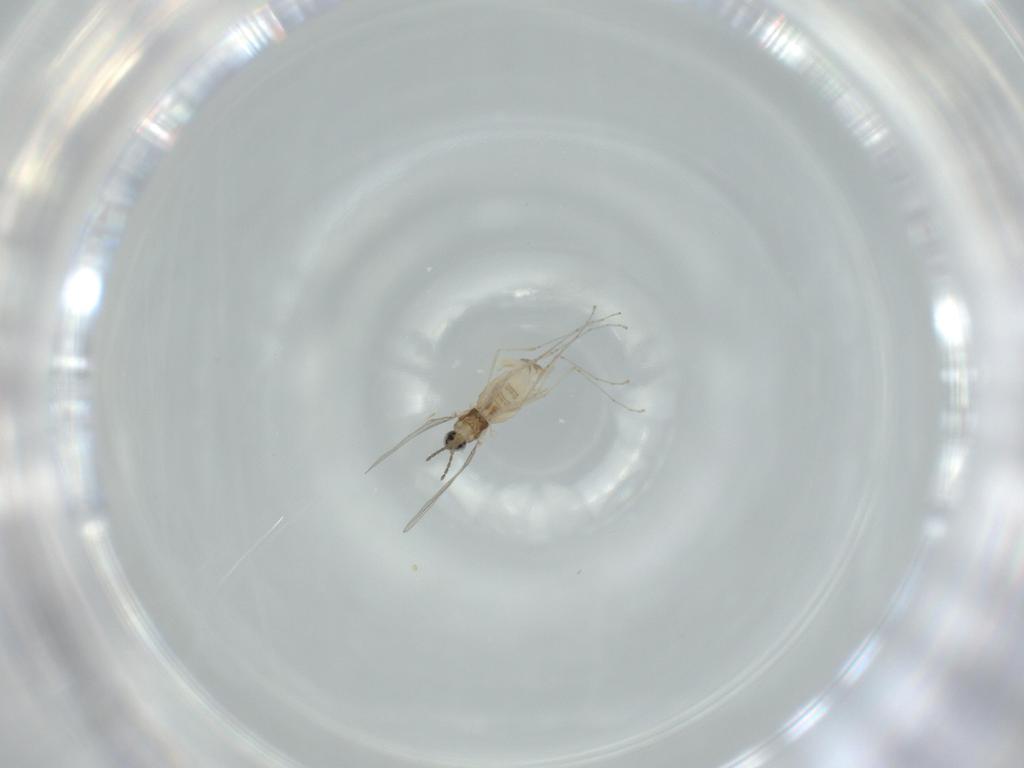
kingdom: Animalia
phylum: Arthropoda
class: Insecta
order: Diptera
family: Cecidomyiidae
